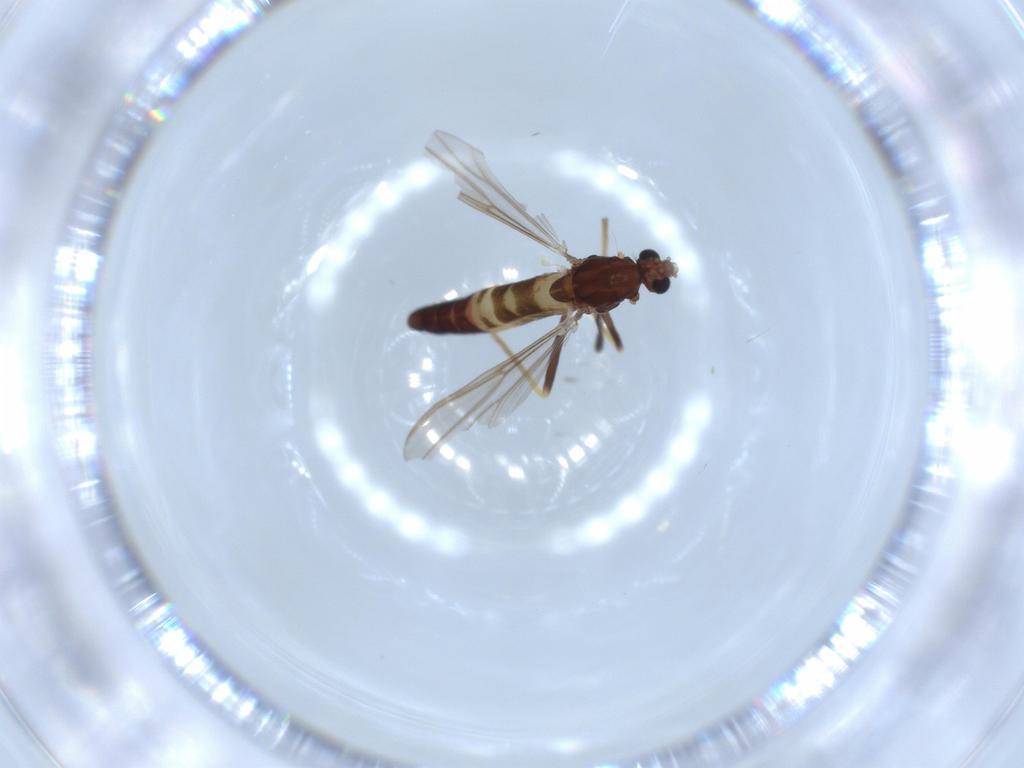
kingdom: Animalia
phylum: Arthropoda
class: Insecta
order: Diptera
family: Chironomidae
